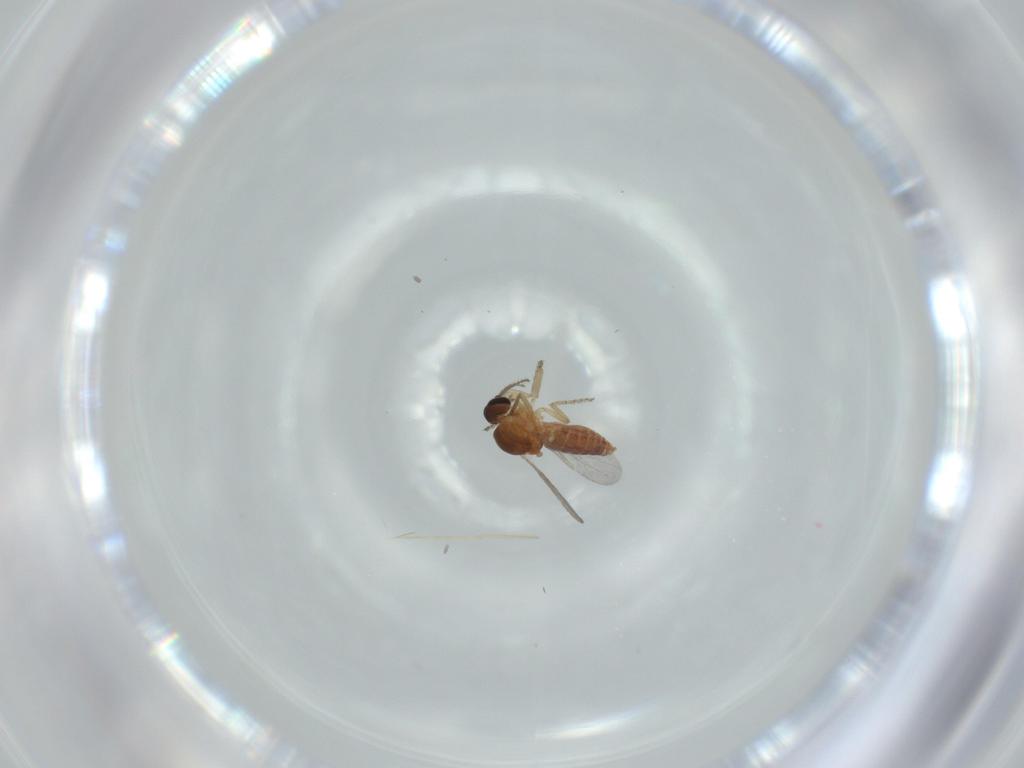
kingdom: Animalia
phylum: Arthropoda
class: Insecta
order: Diptera
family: Ceratopogonidae
